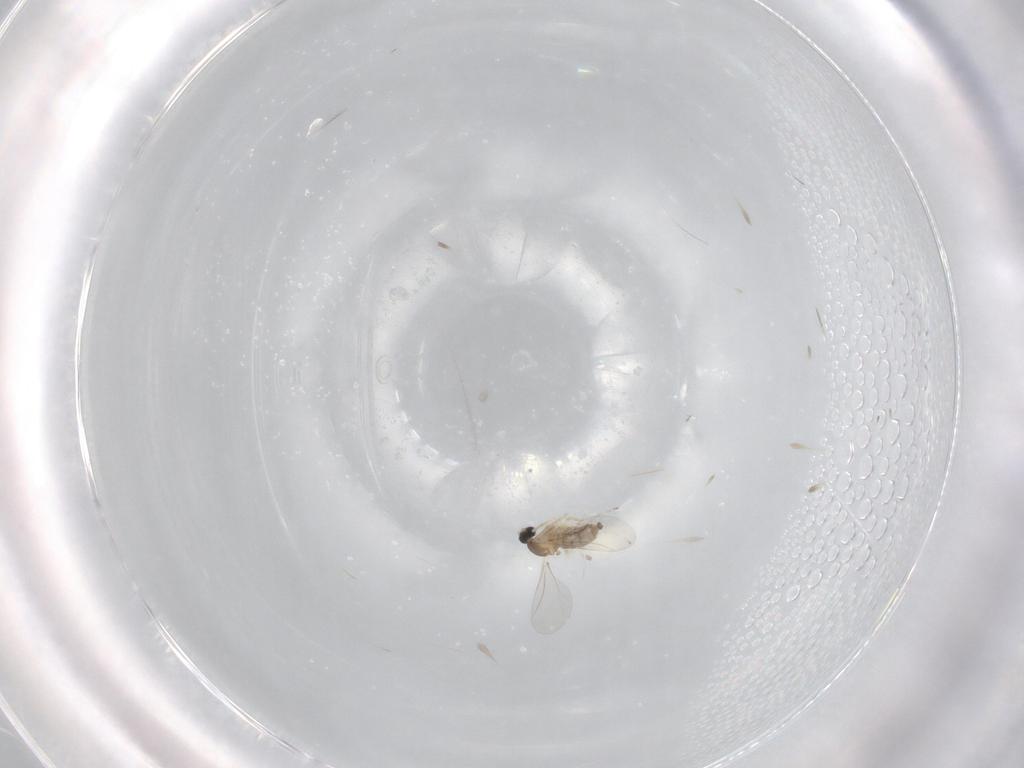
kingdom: Animalia
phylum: Arthropoda
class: Insecta
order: Diptera
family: Cecidomyiidae
